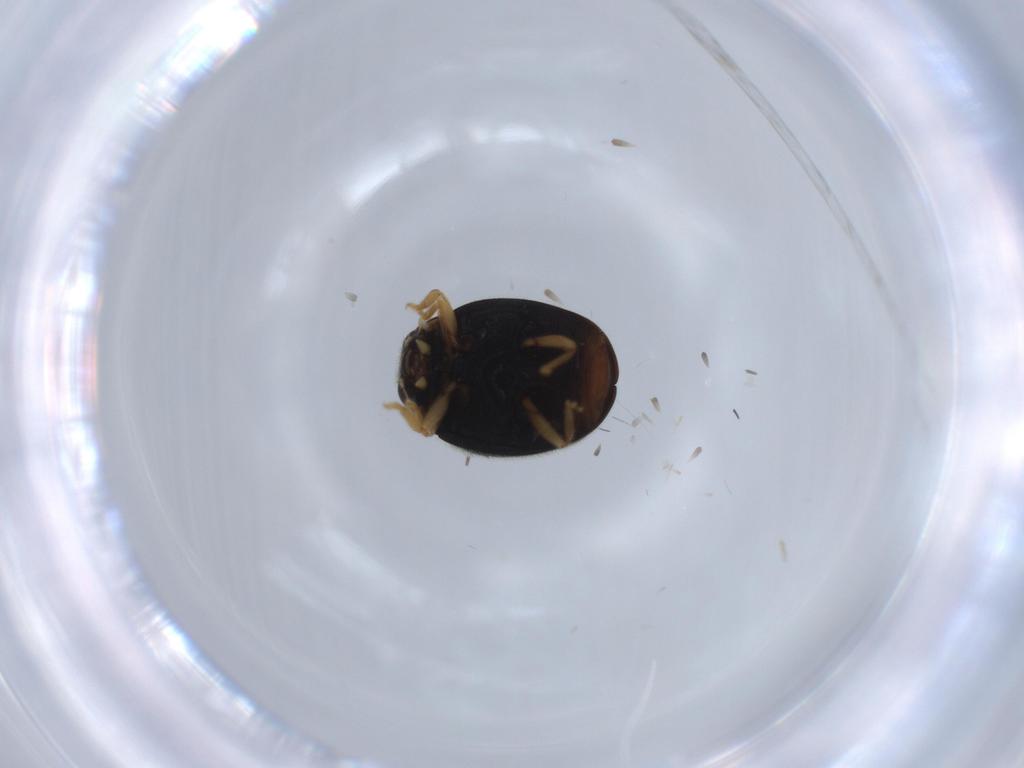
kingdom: Animalia
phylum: Arthropoda
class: Insecta
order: Coleoptera
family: Coccinellidae
